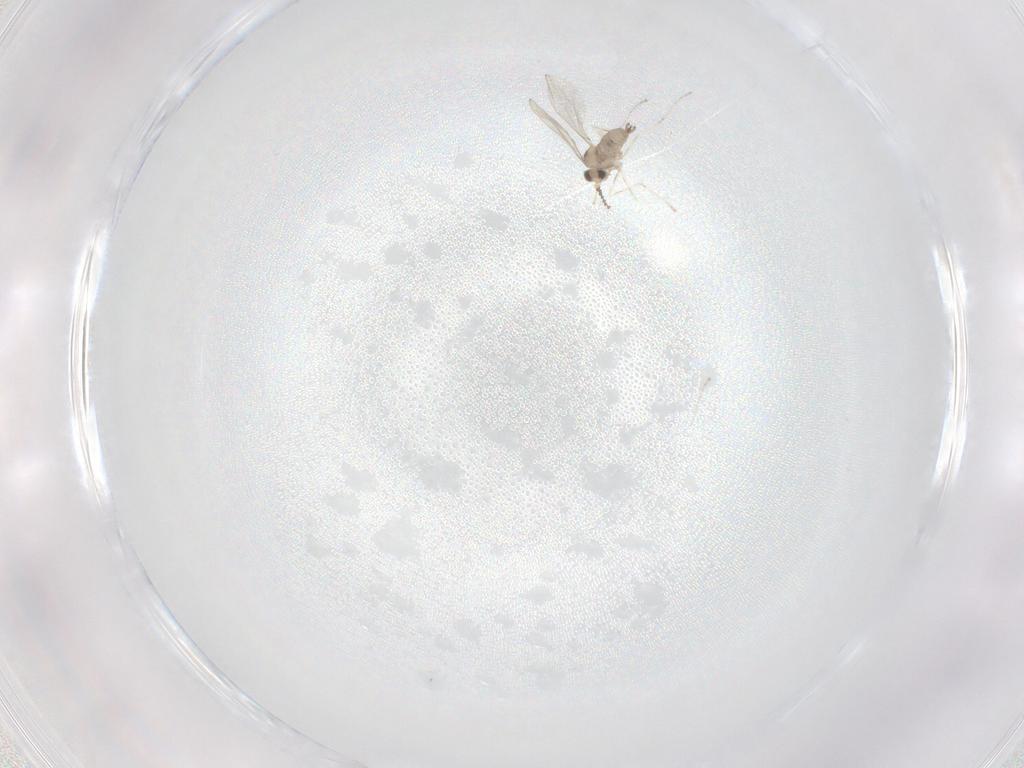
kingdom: Animalia
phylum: Arthropoda
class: Insecta
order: Diptera
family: Cecidomyiidae
